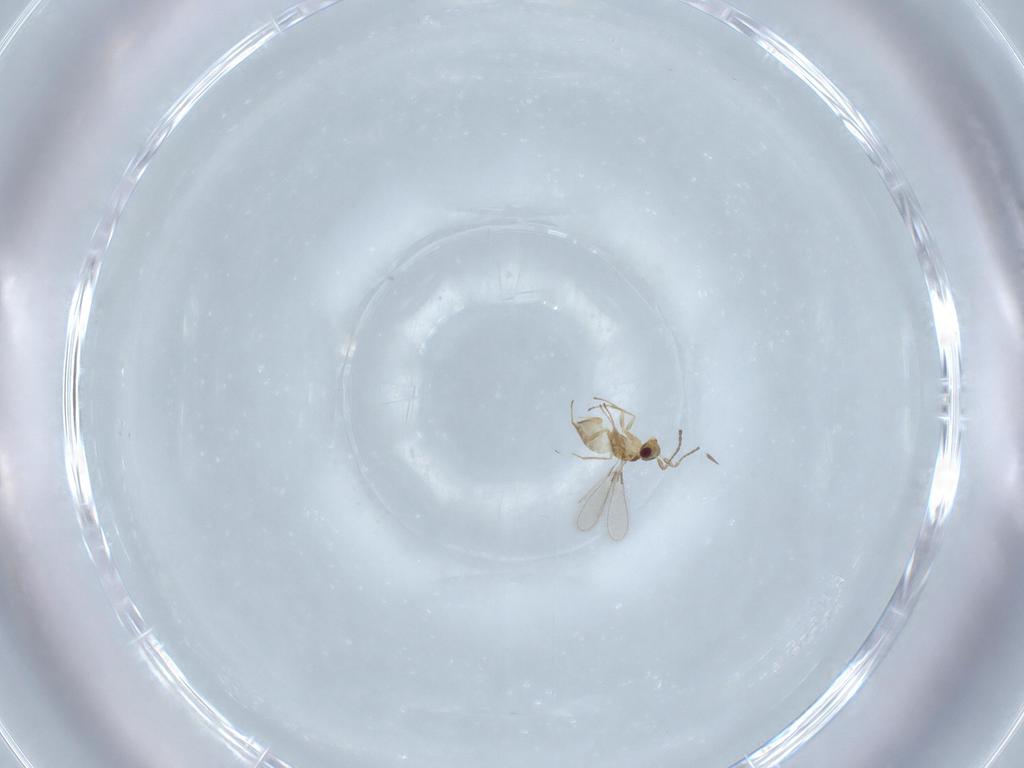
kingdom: Animalia
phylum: Arthropoda
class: Insecta
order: Hymenoptera
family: Mymaridae
